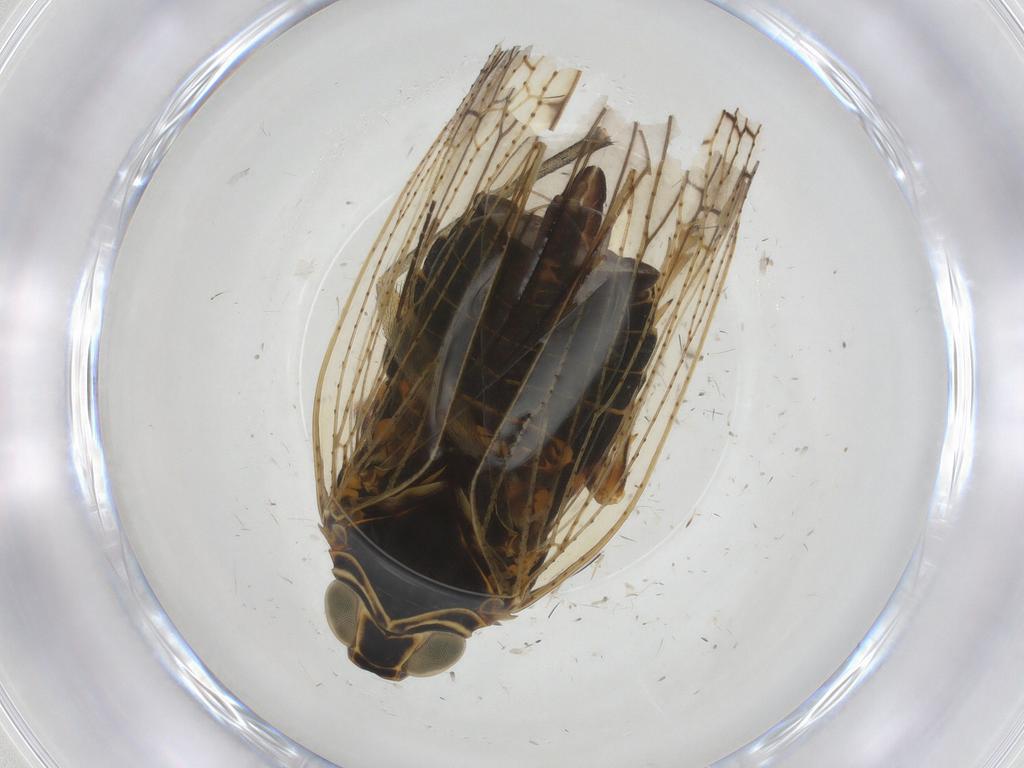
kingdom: Animalia
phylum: Arthropoda
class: Insecta
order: Hemiptera
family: Cixiidae
